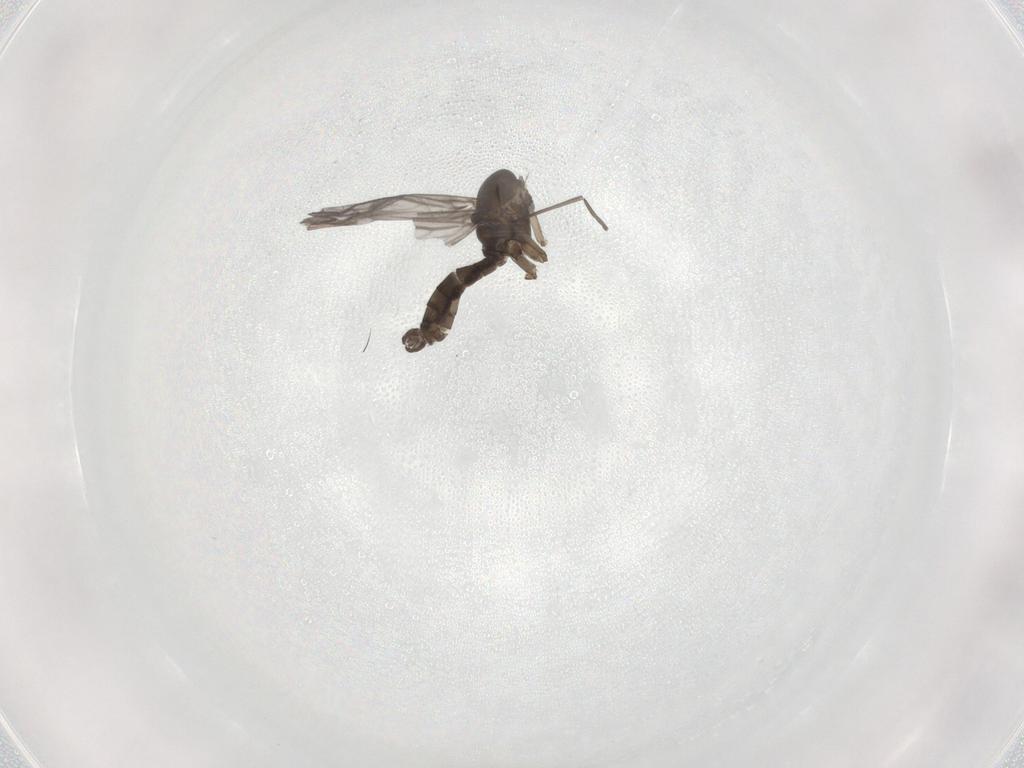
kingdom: Animalia
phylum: Arthropoda
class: Insecta
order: Diptera
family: Sciaridae
